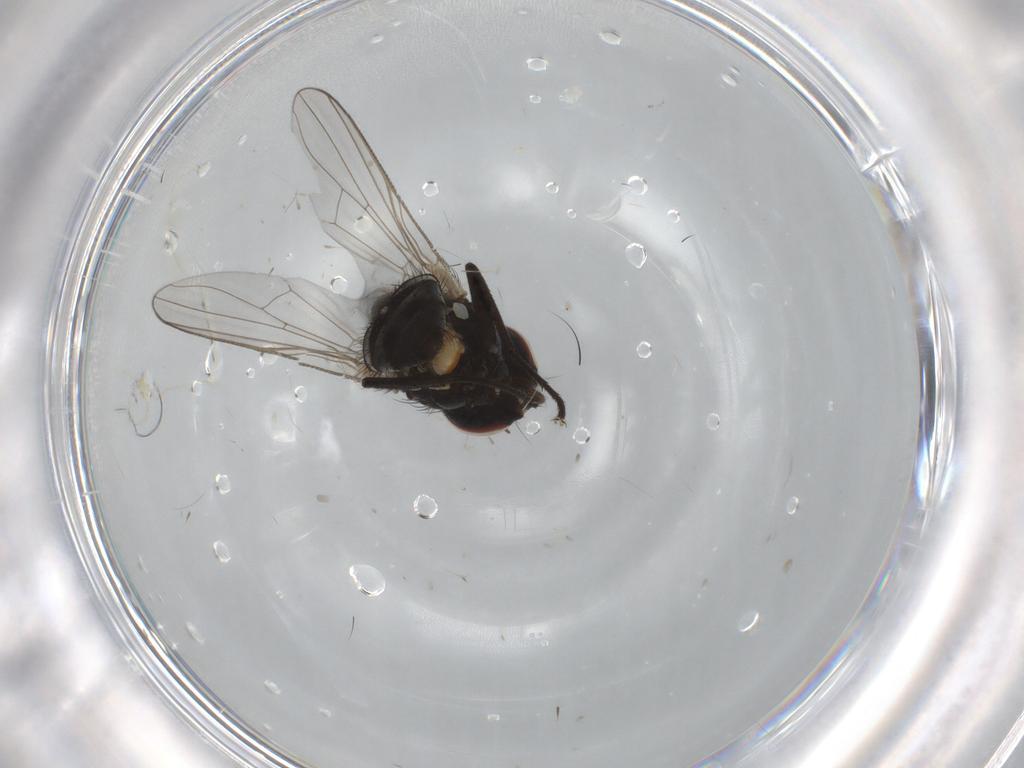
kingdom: Animalia
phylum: Arthropoda
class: Insecta
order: Diptera
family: Muscidae
